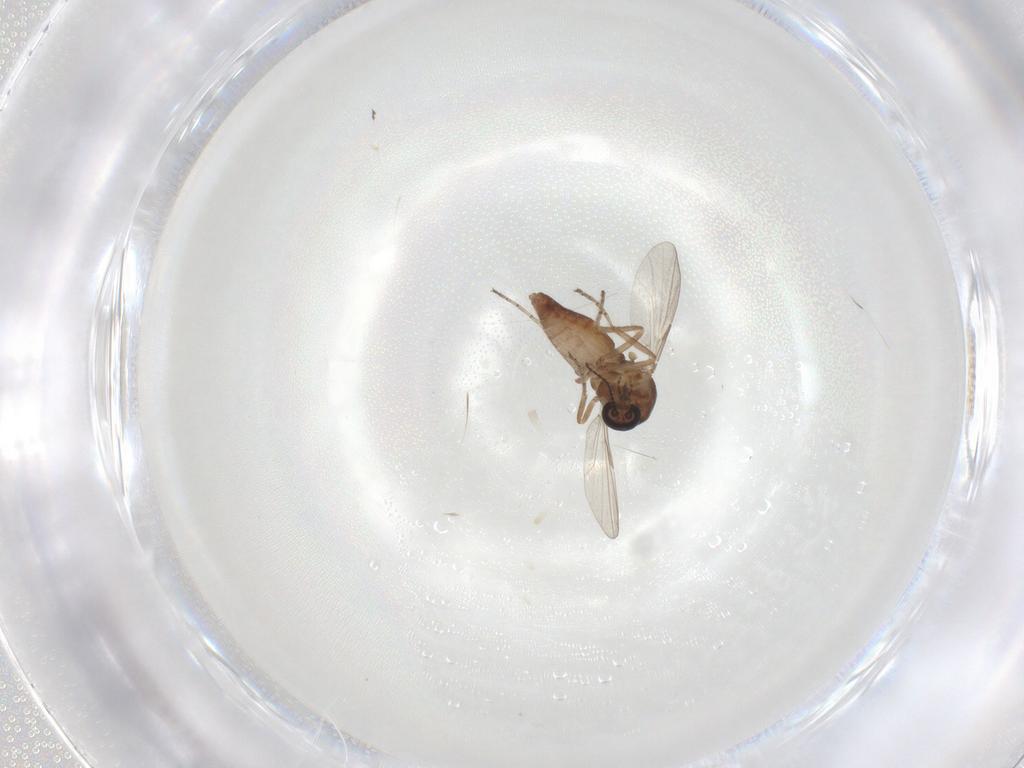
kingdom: Animalia
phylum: Arthropoda
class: Insecta
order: Diptera
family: Ceratopogonidae
